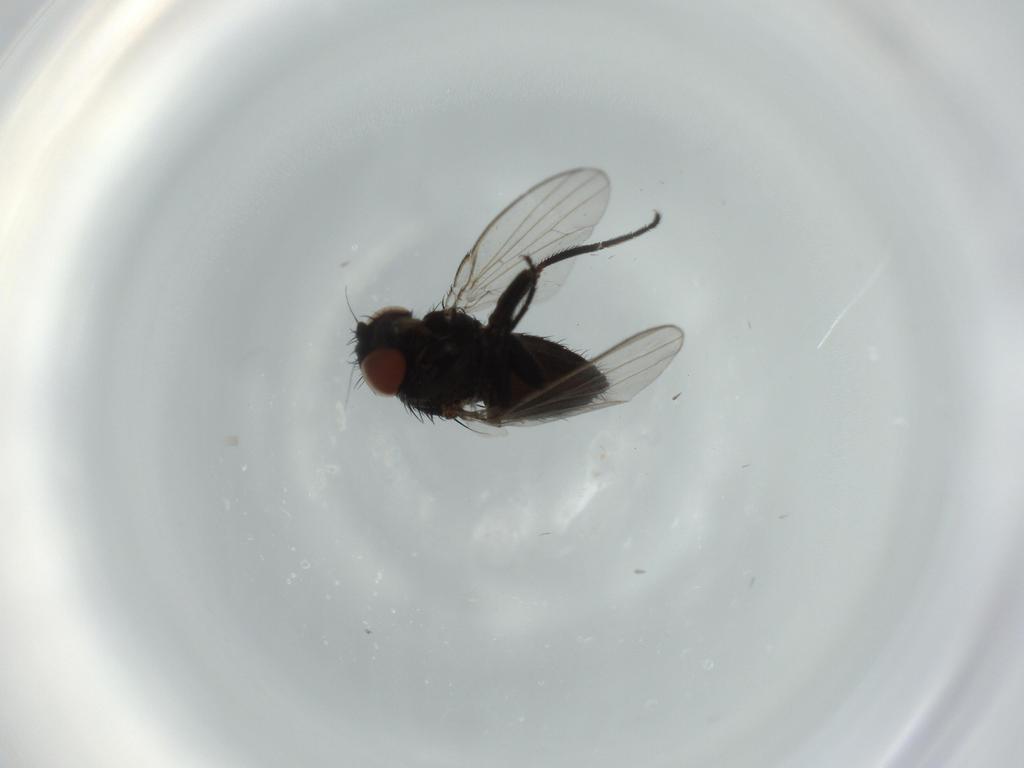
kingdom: Animalia
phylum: Arthropoda
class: Insecta
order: Diptera
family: Milichiidae
